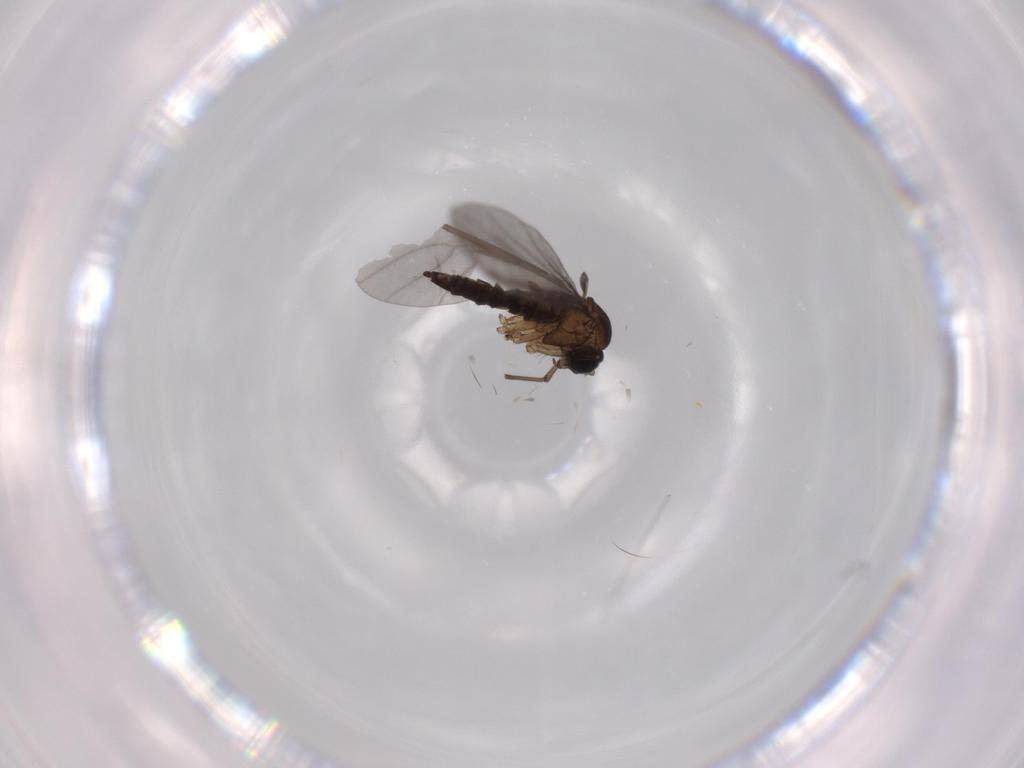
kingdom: Animalia
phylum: Arthropoda
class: Insecta
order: Diptera
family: Sciaridae
